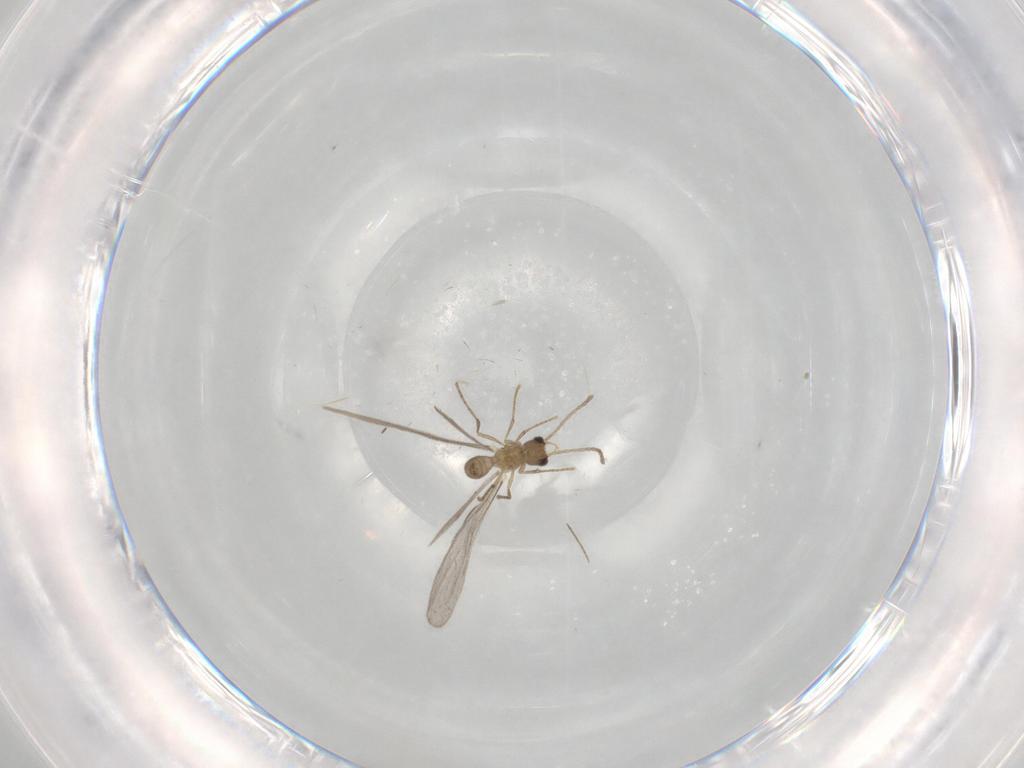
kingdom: Animalia
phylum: Arthropoda
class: Insecta
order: Hymenoptera
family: Formicidae
